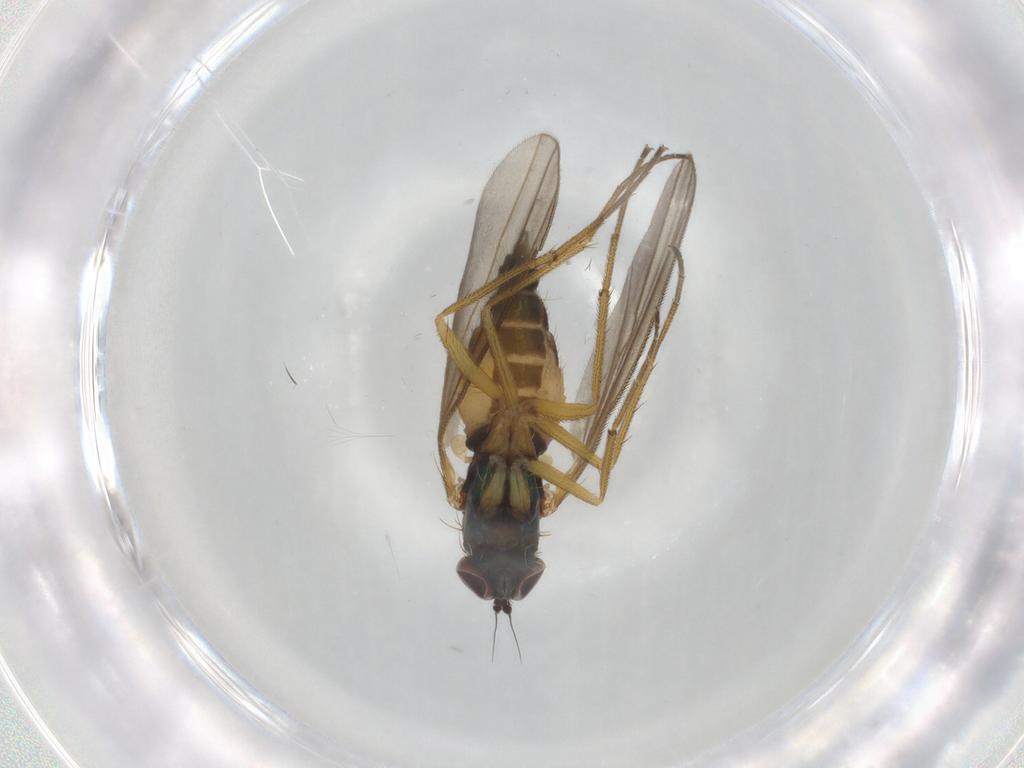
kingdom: Animalia
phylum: Arthropoda
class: Insecta
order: Diptera
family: Dolichopodidae
